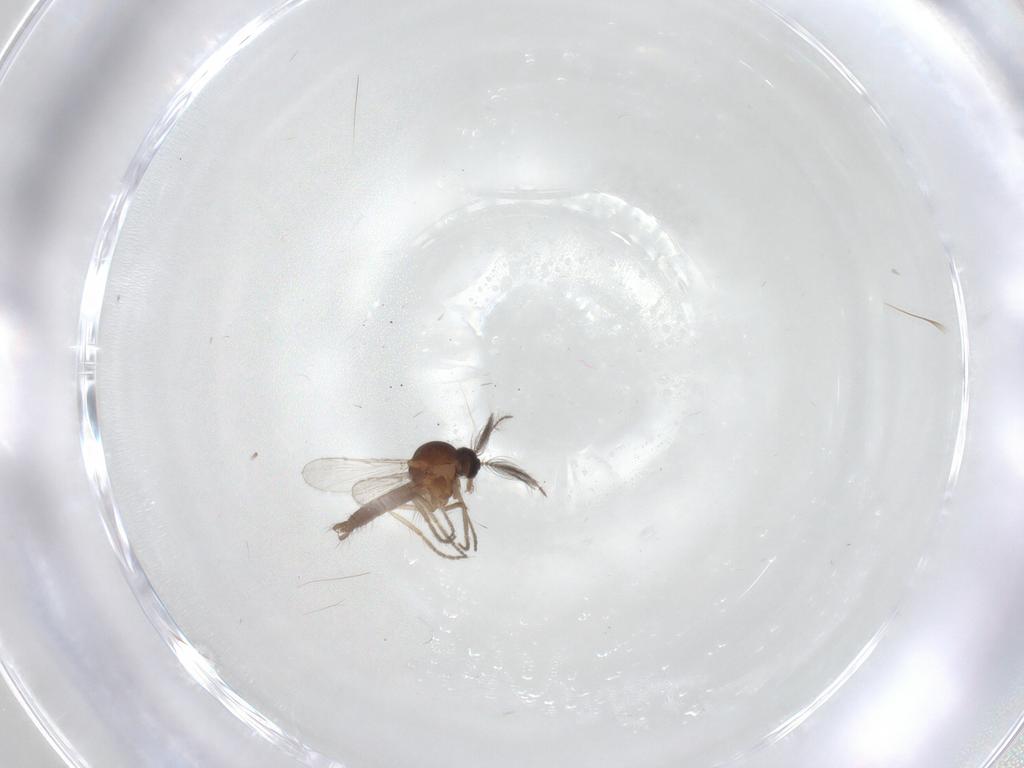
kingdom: Animalia
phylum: Arthropoda
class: Insecta
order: Diptera
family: Ceratopogonidae
